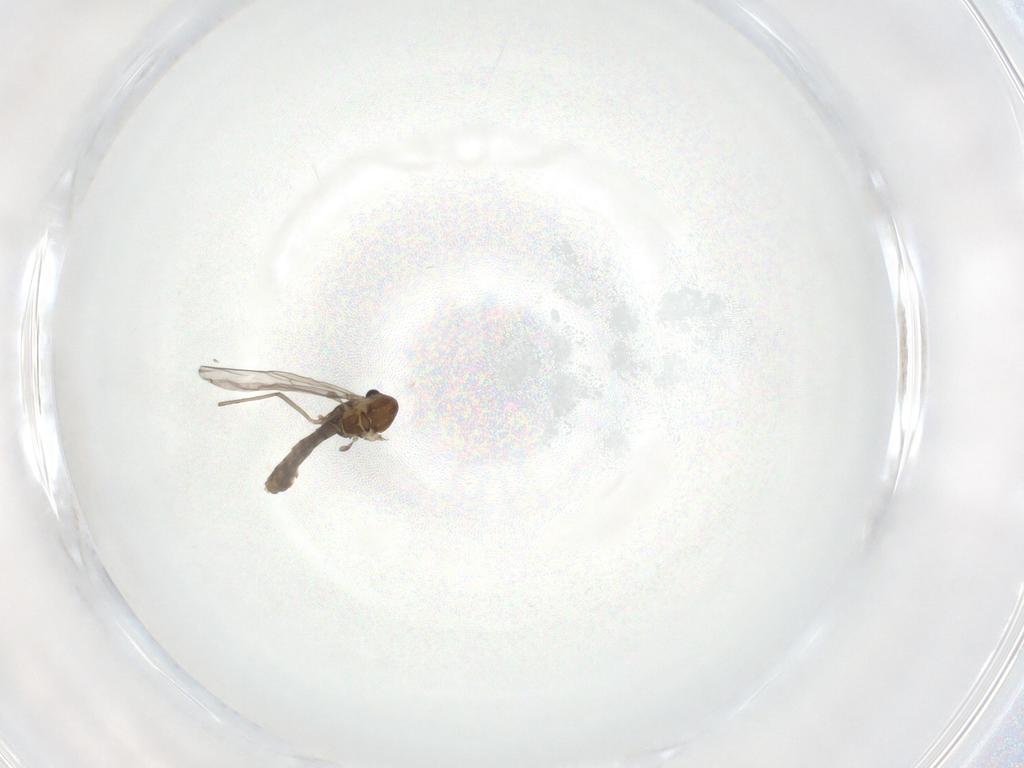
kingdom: Animalia
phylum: Arthropoda
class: Insecta
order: Diptera
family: Chironomidae
